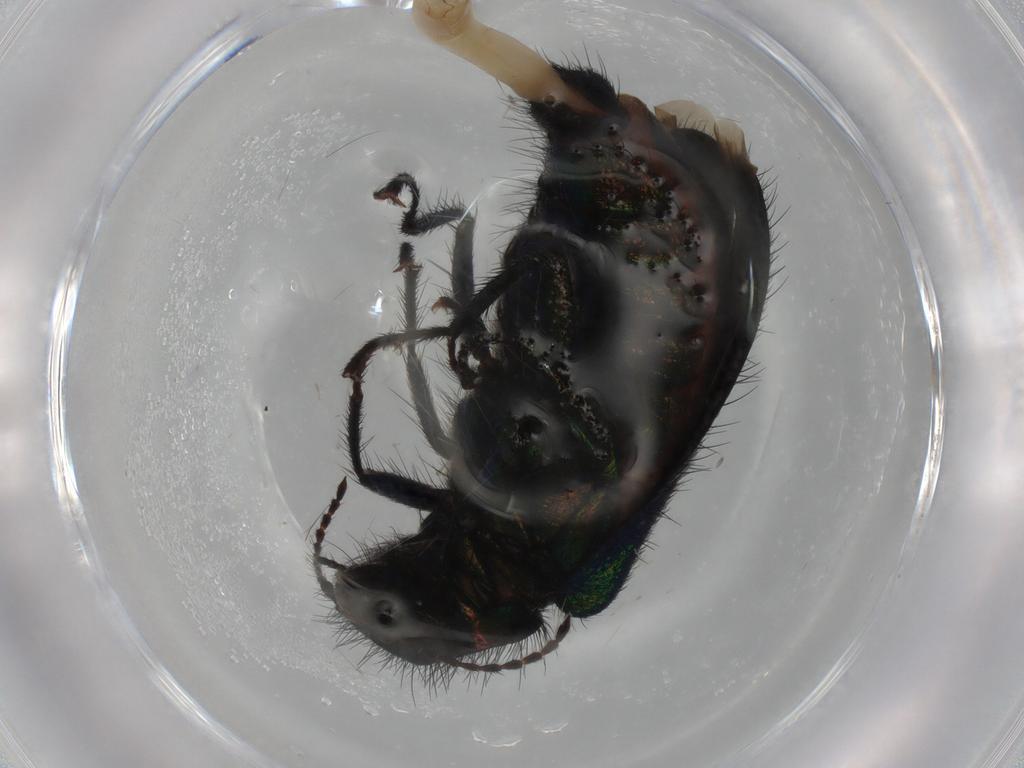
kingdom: Animalia
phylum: Arthropoda
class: Insecta
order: Coleoptera
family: Melyridae
